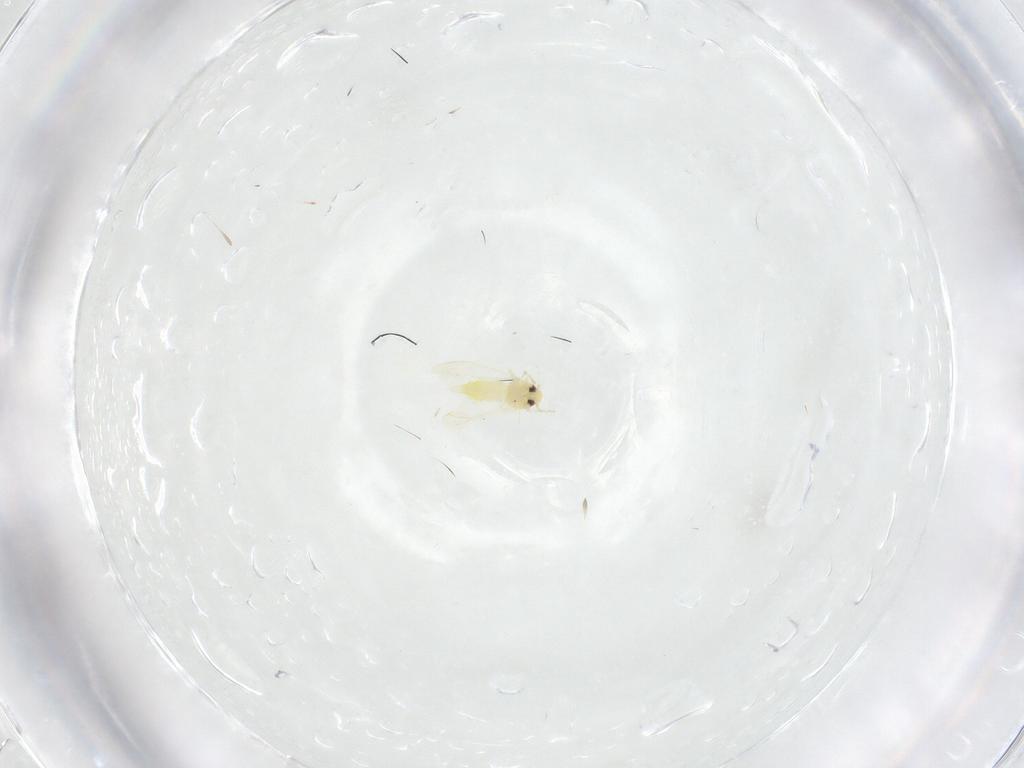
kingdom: Animalia
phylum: Arthropoda
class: Insecta
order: Hemiptera
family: Aleyrodidae
